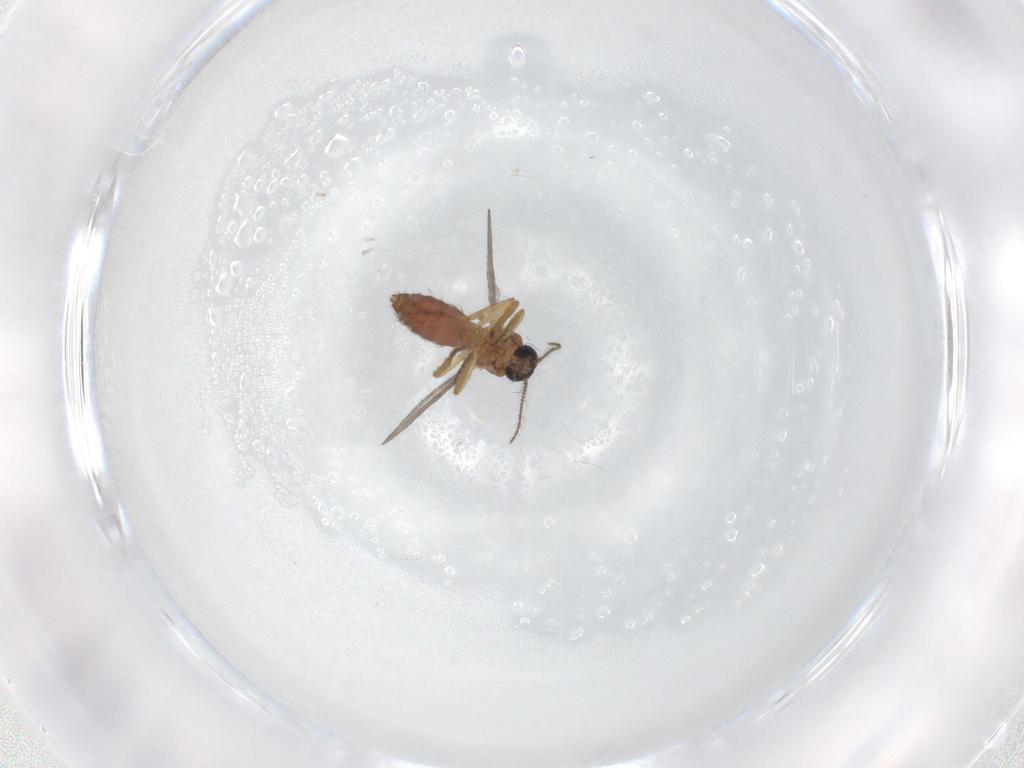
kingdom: Animalia
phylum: Arthropoda
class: Insecta
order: Diptera
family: Ceratopogonidae
